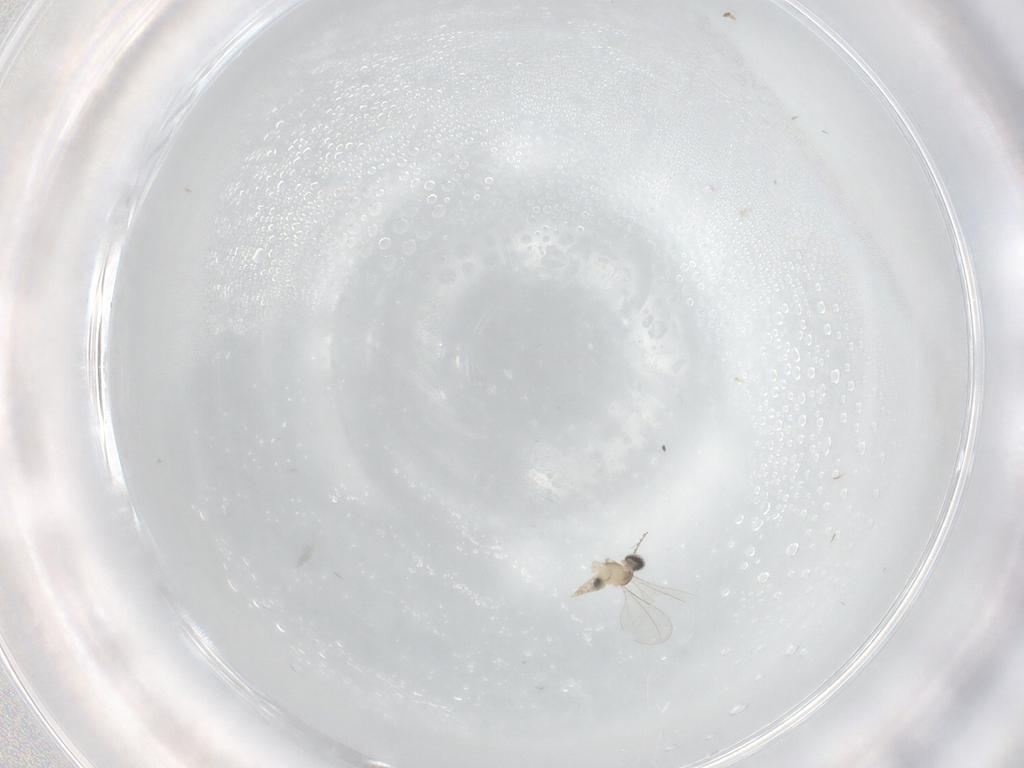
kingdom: Animalia
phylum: Arthropoda
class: Insecta
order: Diptera
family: Cecidomyiidae
